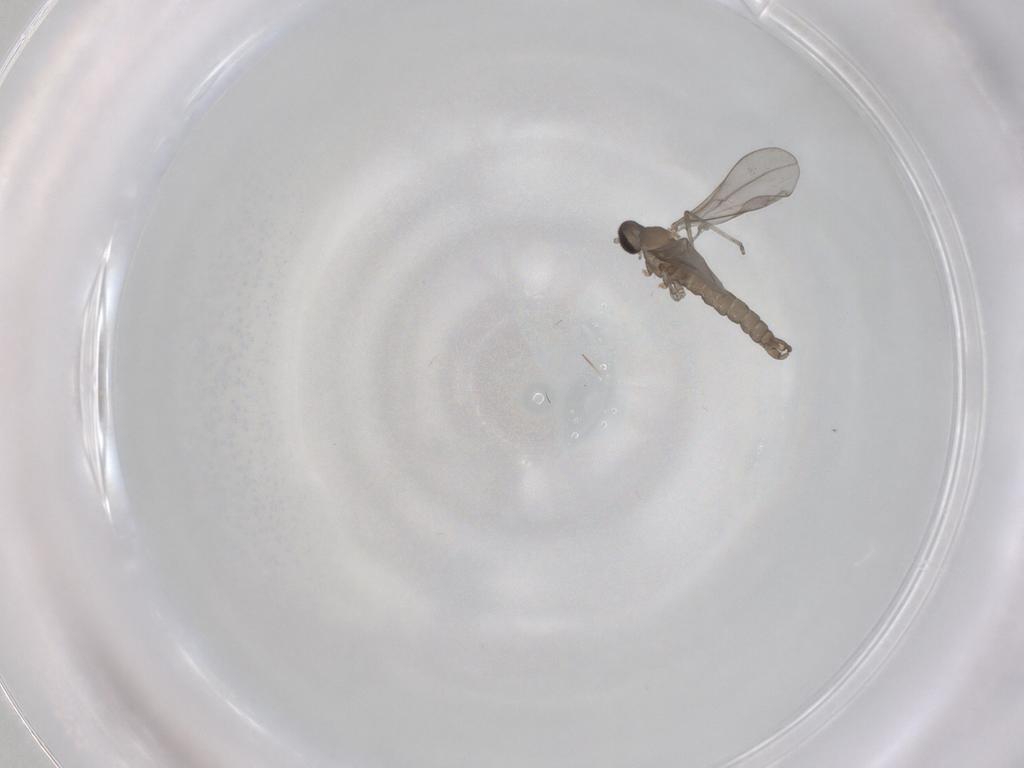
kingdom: Animalia
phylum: Arthropoda
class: Insecta
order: Diptera
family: Cecidomyiidae
